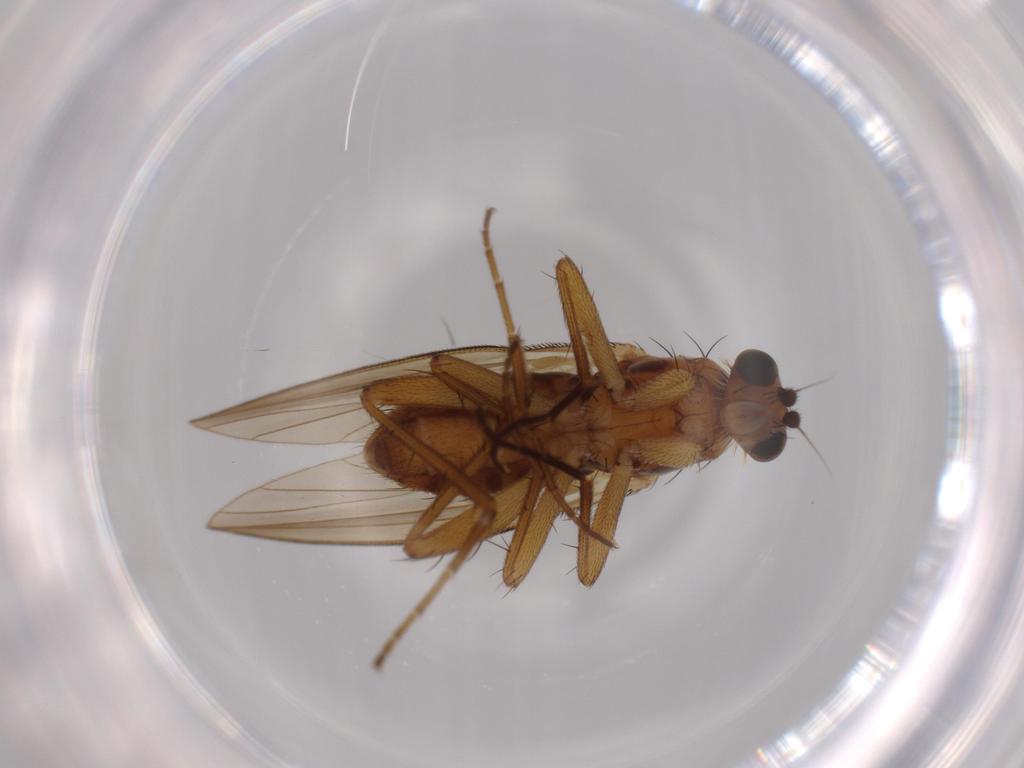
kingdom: Animalia
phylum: Arthropoda
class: Insecta
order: Diptera
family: Lonchopteridae
